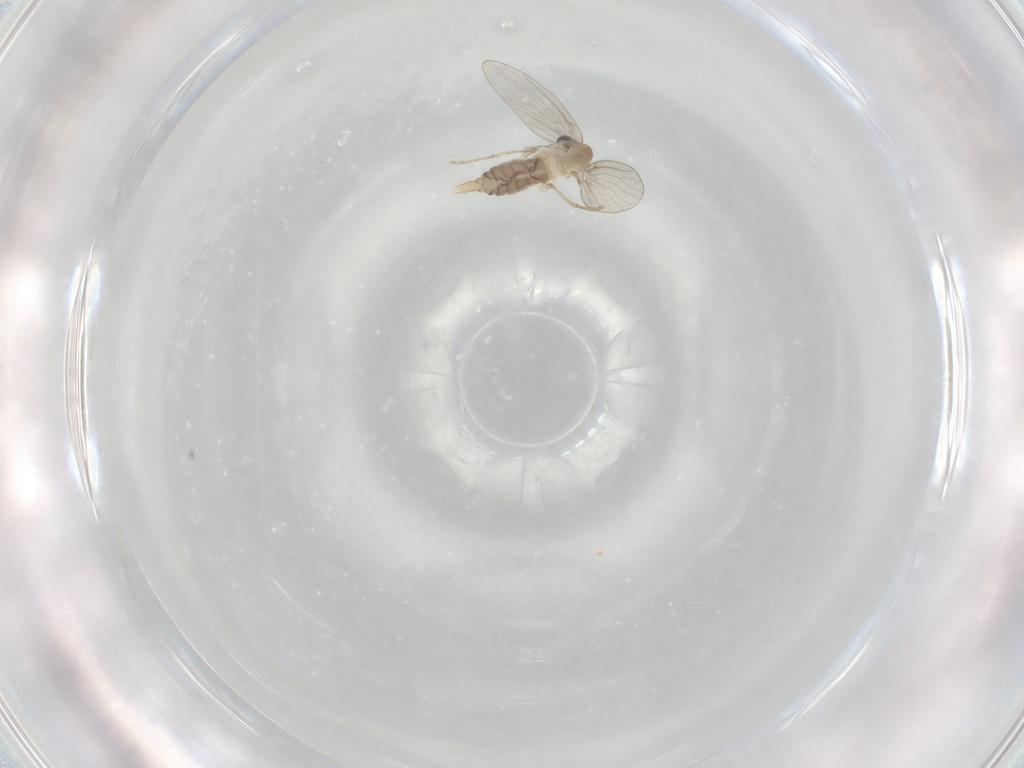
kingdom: Animalia
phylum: Arthropoda
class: Insecta
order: Diptera
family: Psychodidae
